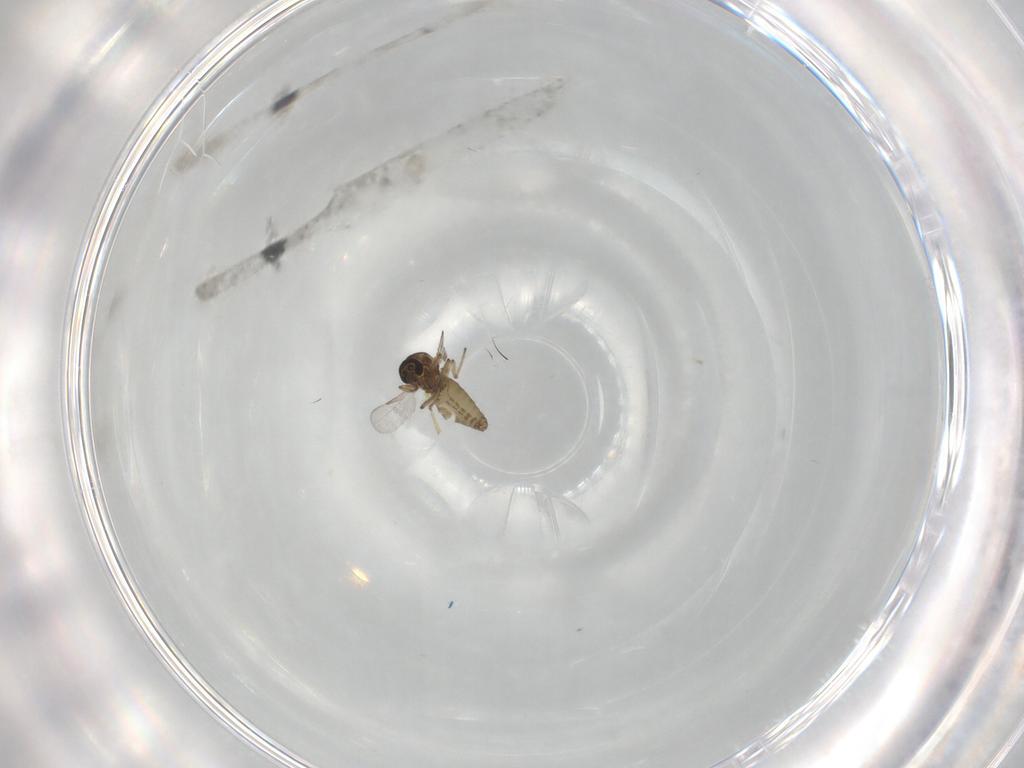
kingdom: Animalia
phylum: Arthropoda
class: Insecta
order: Diptera
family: Ceratopogonidae
